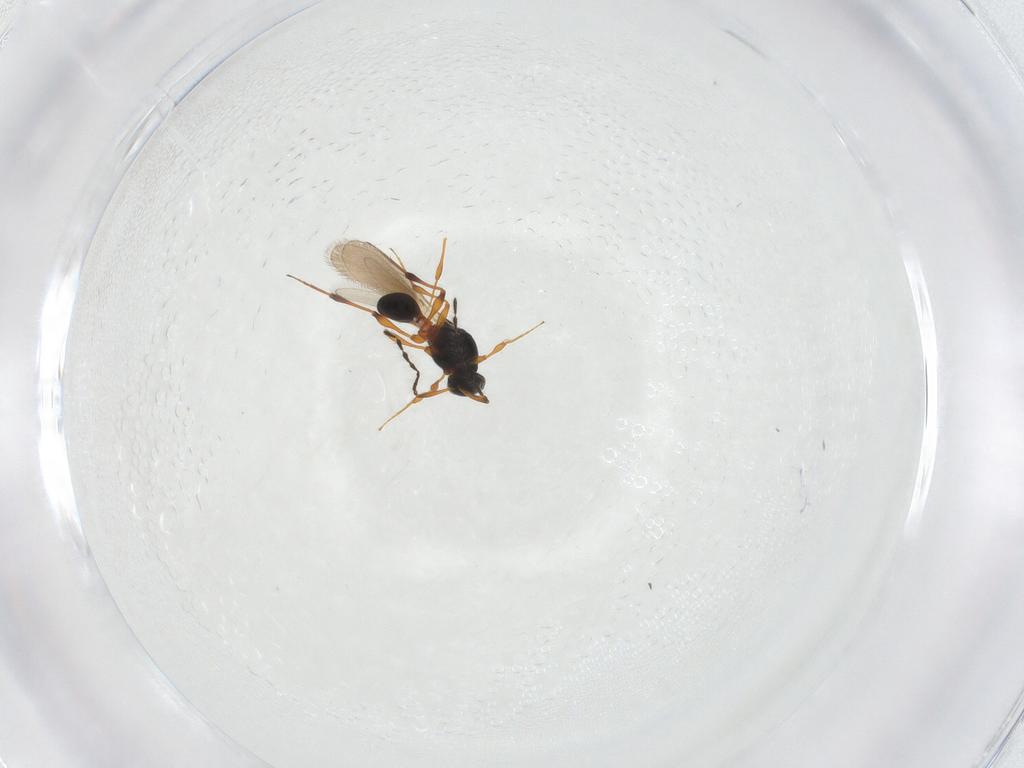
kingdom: Animalia
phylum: Arthropoda
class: Insecta
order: Hymenoptera
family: Platygastridae
